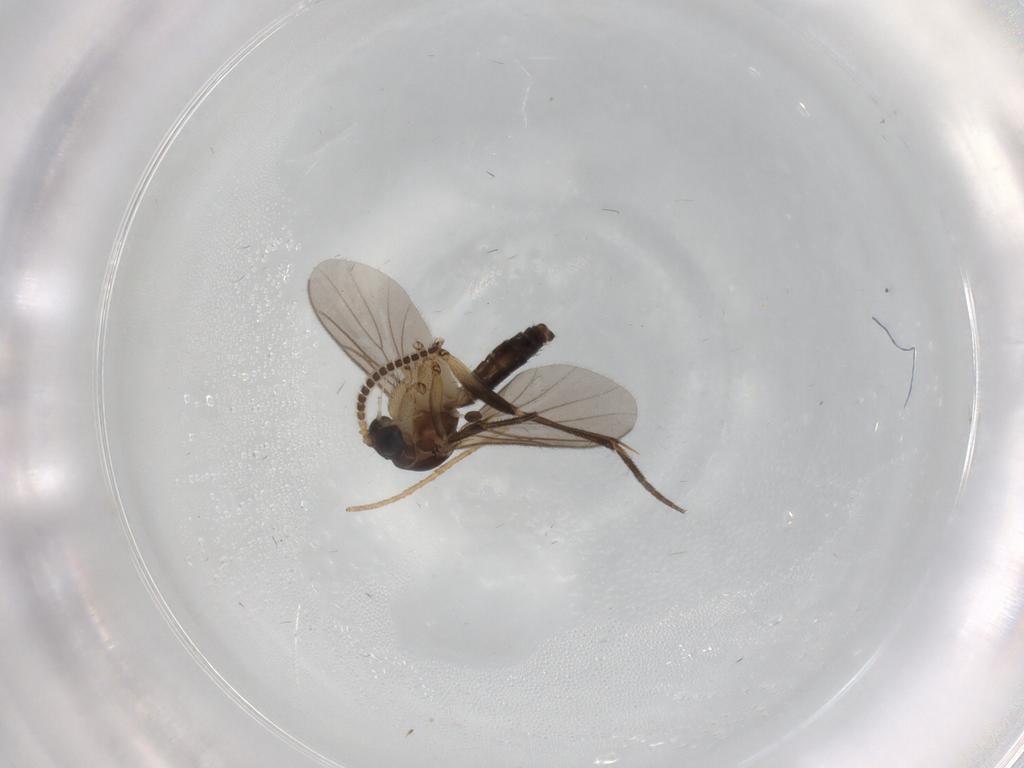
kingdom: Animalia
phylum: Arthropoda
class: Insecta
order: Diptera
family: Cecidomyiidae
